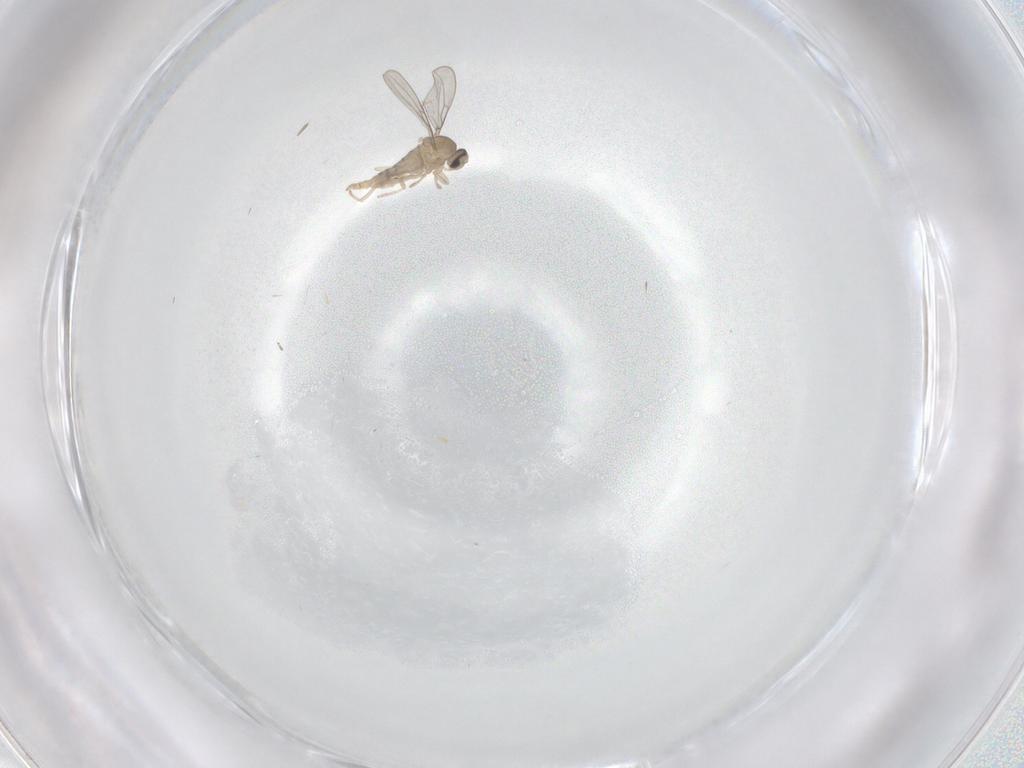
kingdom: Animalia
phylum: Arthropoda
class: Insecta
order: Diptera
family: Cecidomyiidae
